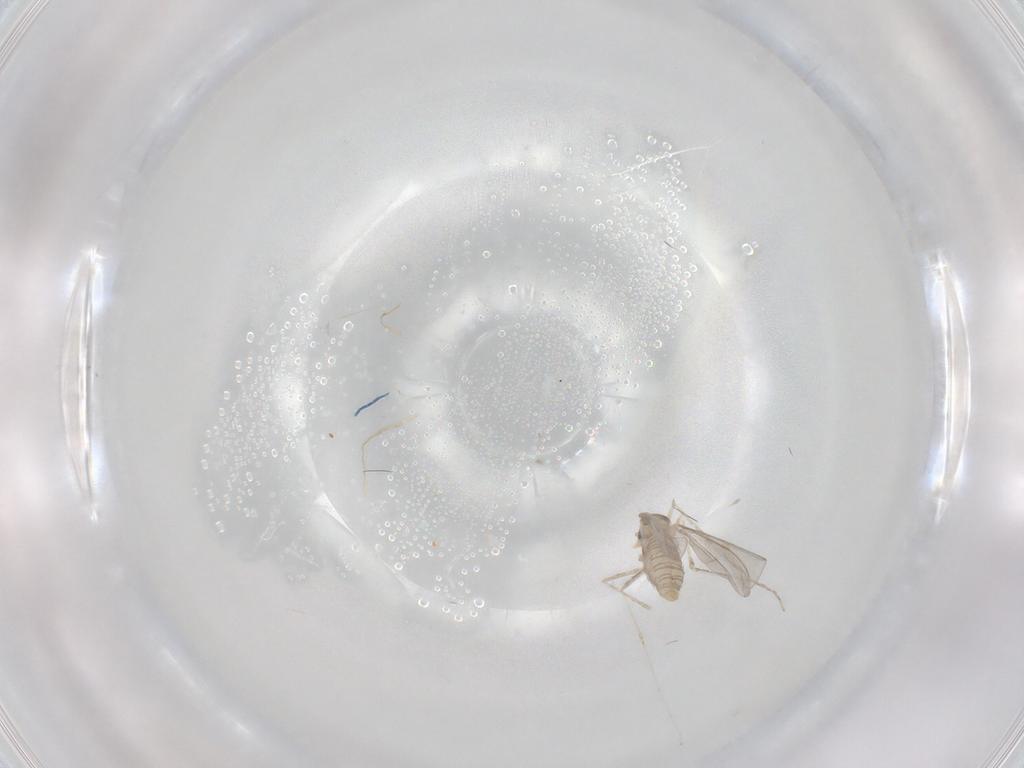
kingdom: Animalia
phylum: Arthropoda
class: Insecta
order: Diptera
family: Cecidomyiidae
